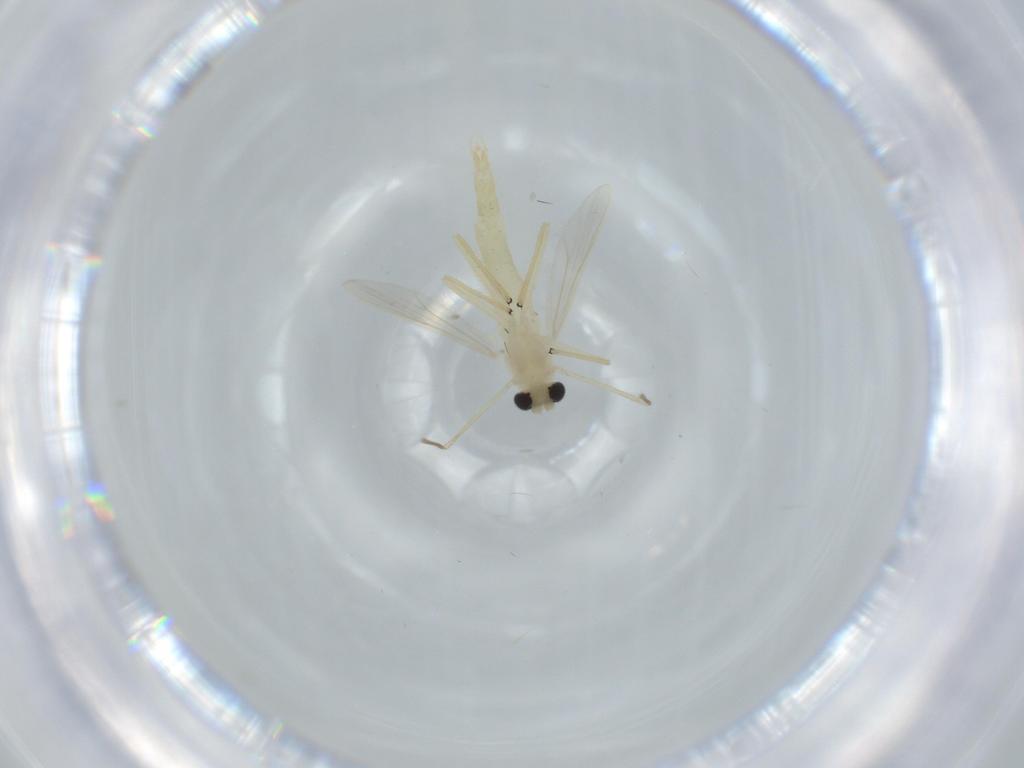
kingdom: Animalia
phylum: Arthropoda
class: Insecta
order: Diptera
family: Chironomidae
